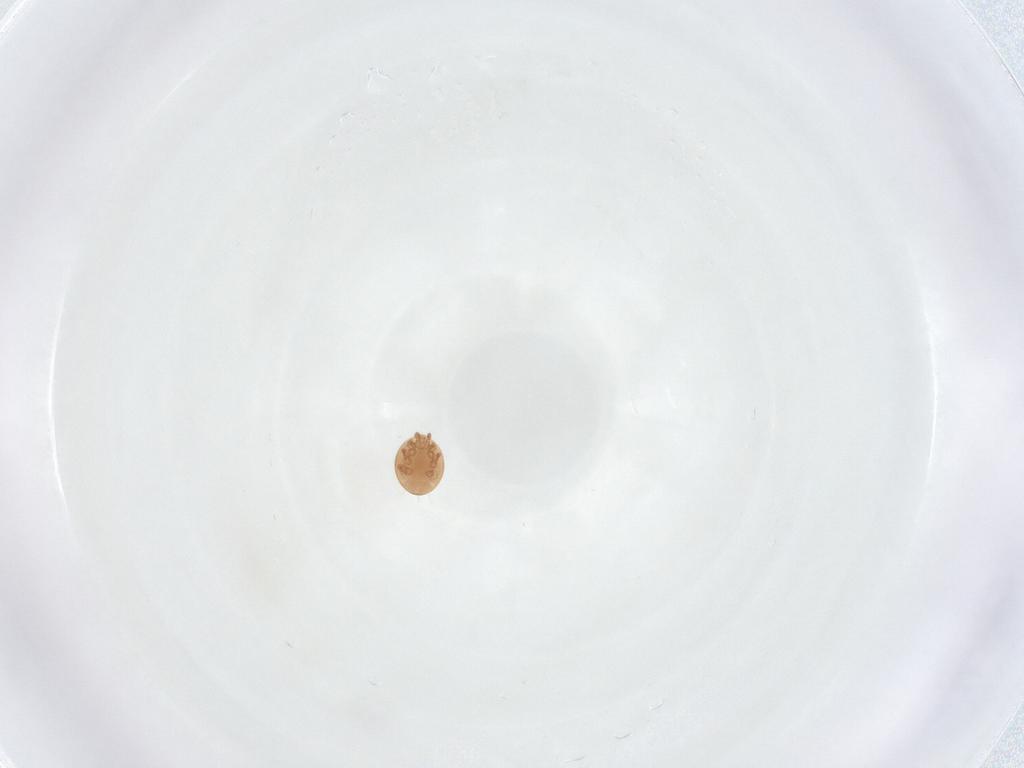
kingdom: Animalia
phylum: Arthropoda
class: Arachnida
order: Mesostigmata
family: Trematuridae
